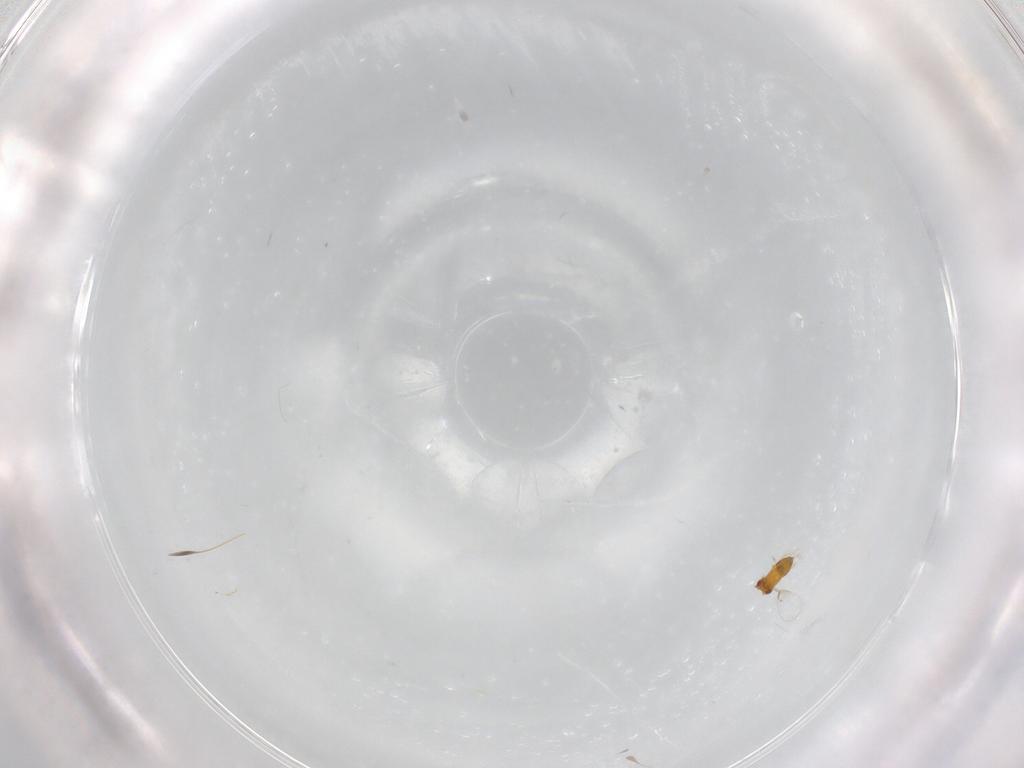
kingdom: Animalia
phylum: Arthropoda
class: Insecta
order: Hymenoptera
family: Trichogrammatidae
